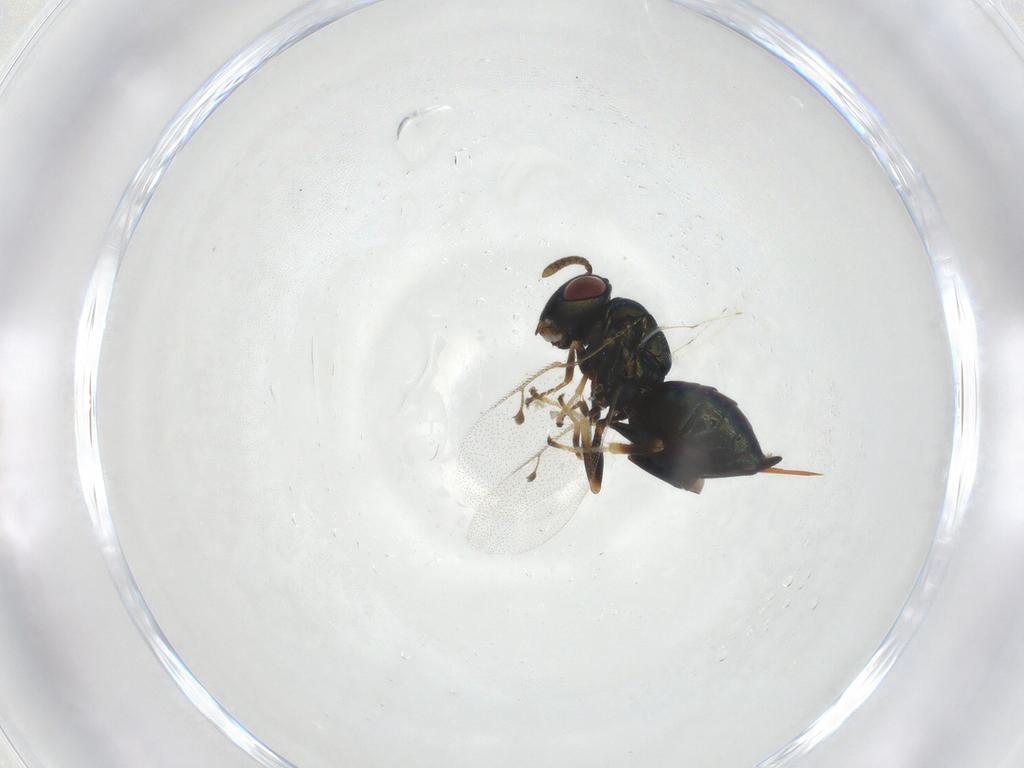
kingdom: Animalia
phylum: Arthropoda
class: Insecta
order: Hymenoptera
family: Pteromalidae
